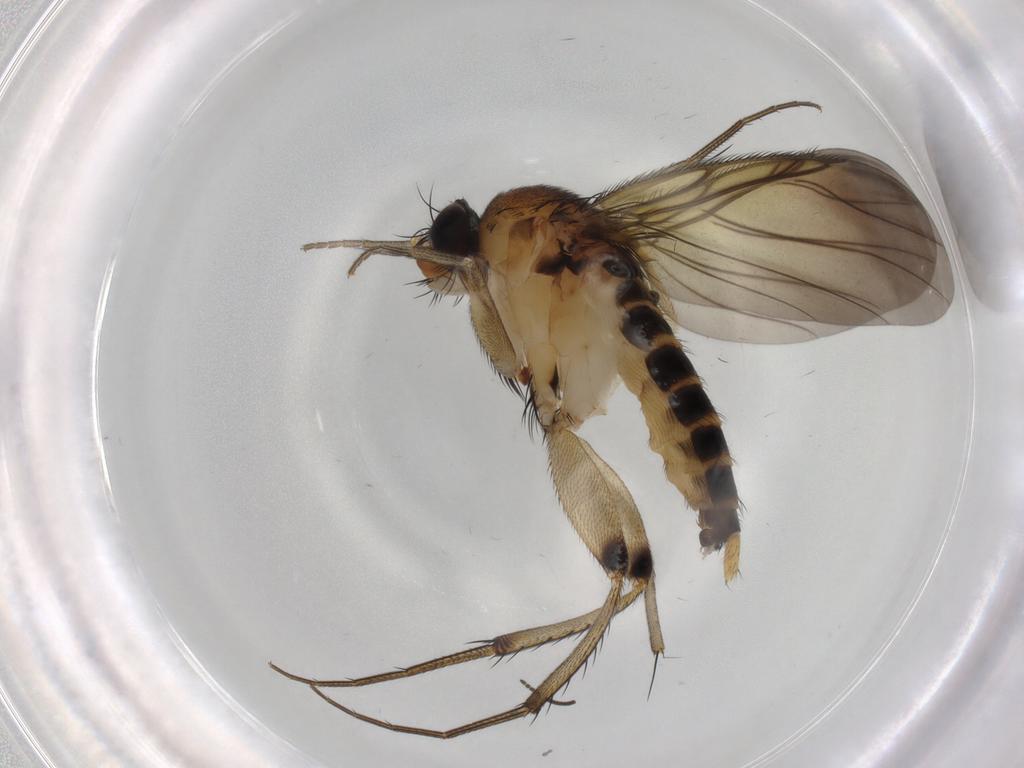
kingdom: Animalia
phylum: Arthropoda
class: Insecta
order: Diptera
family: Phoridae
